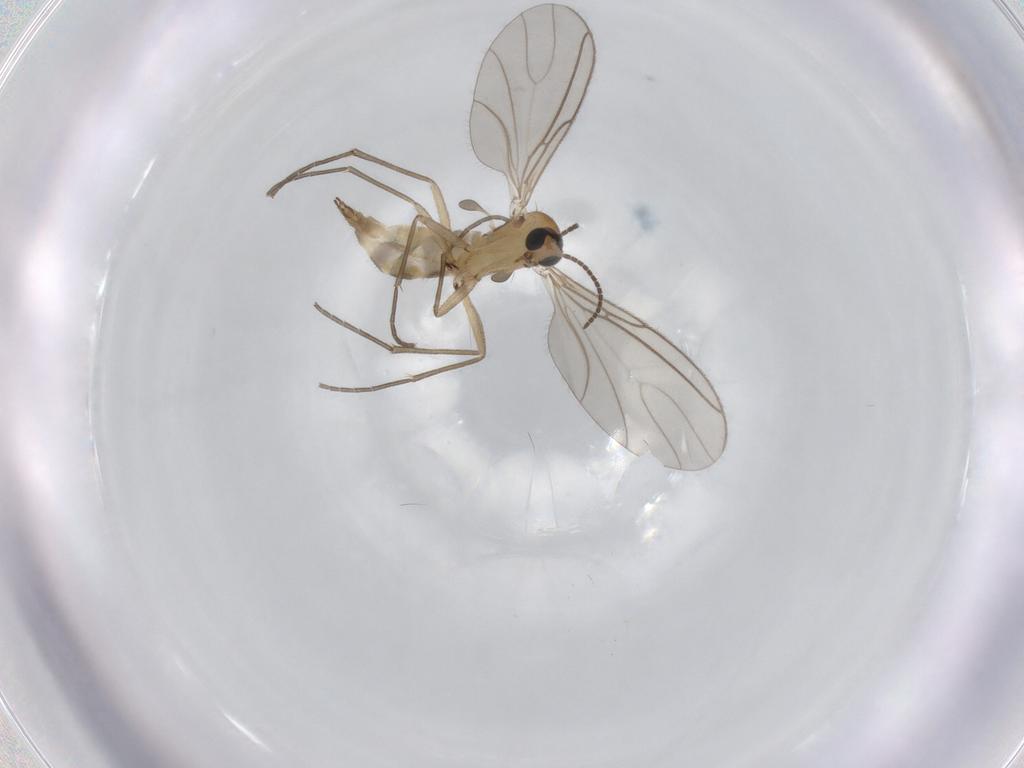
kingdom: Animalia
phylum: Arthropoda
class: Insecta
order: Diptera
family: Sciaridae
